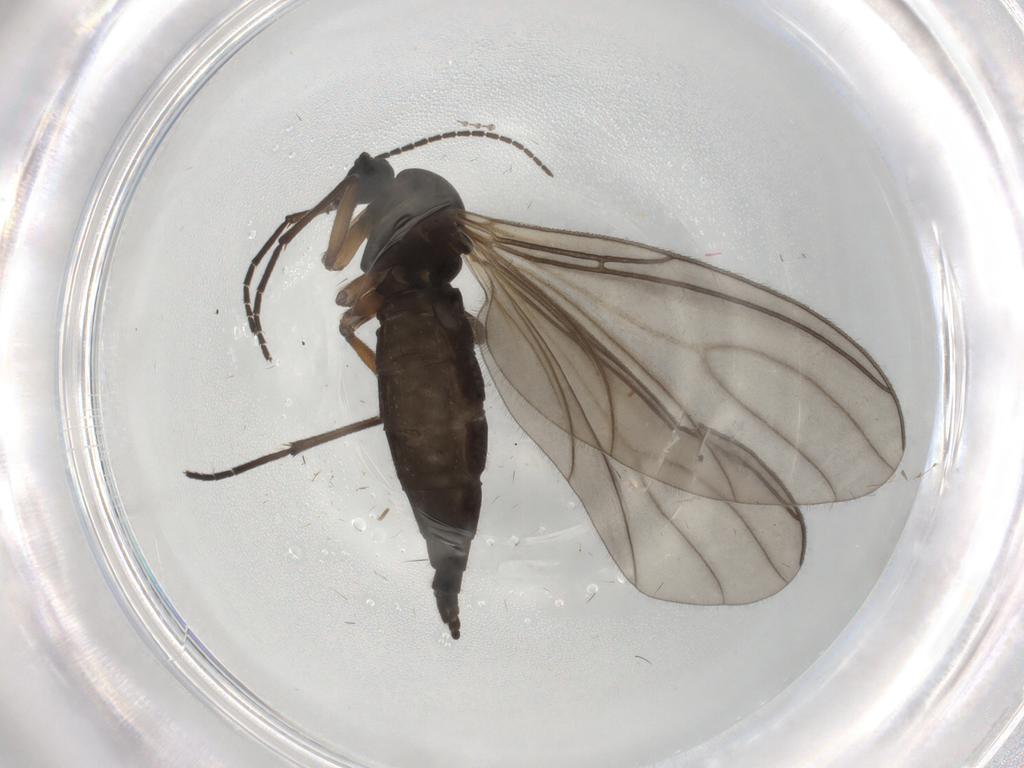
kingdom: Animalia
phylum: Arthropoda
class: Insecta
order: Diptera
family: Sciaridae
